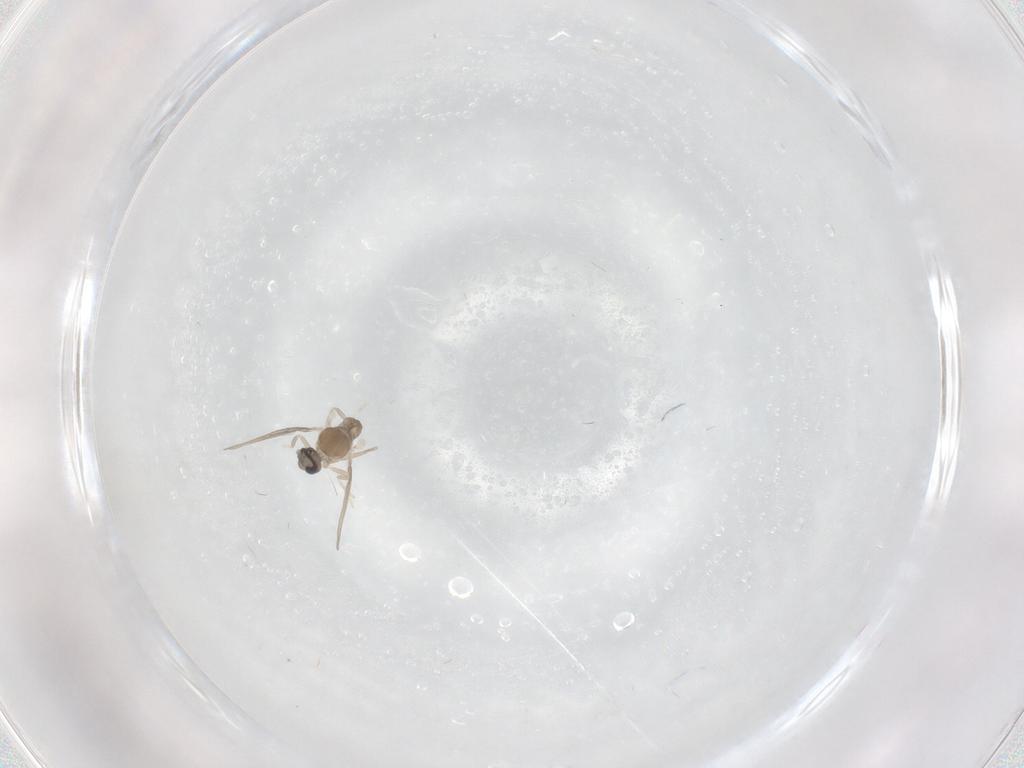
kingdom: Animalia
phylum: Arthropoda
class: Insecta
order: Diptera
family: Cecidomyiidae
